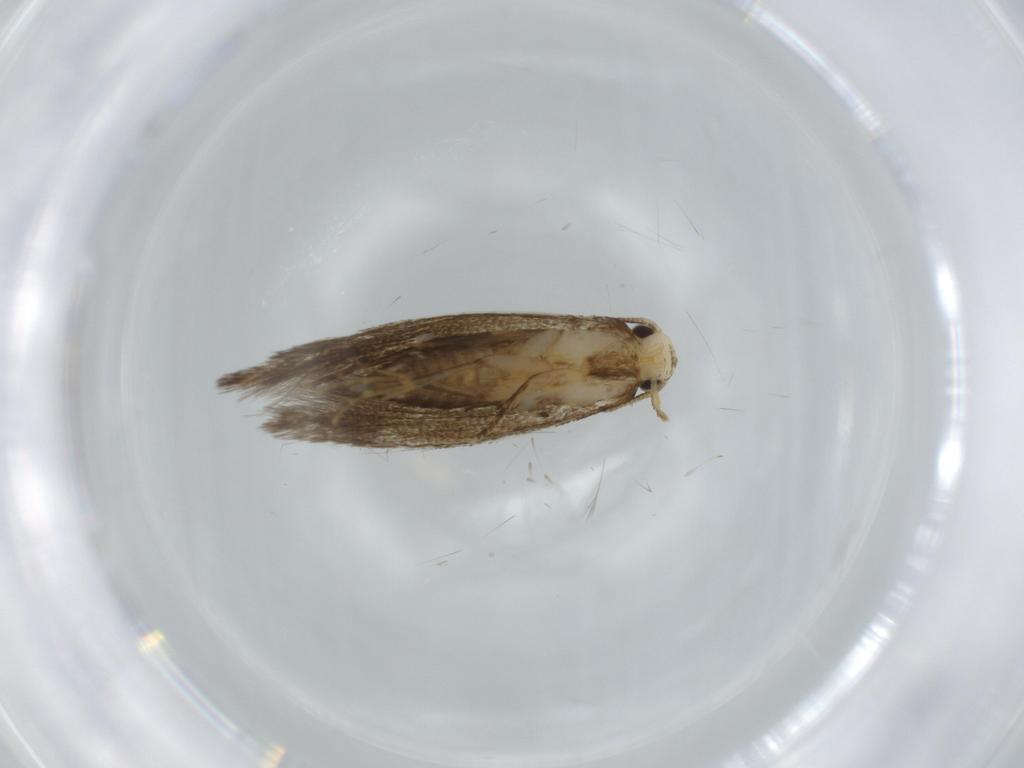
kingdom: Animalia
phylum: Arthropoda
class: Insecta
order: Lepidoptera
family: Tineidae
